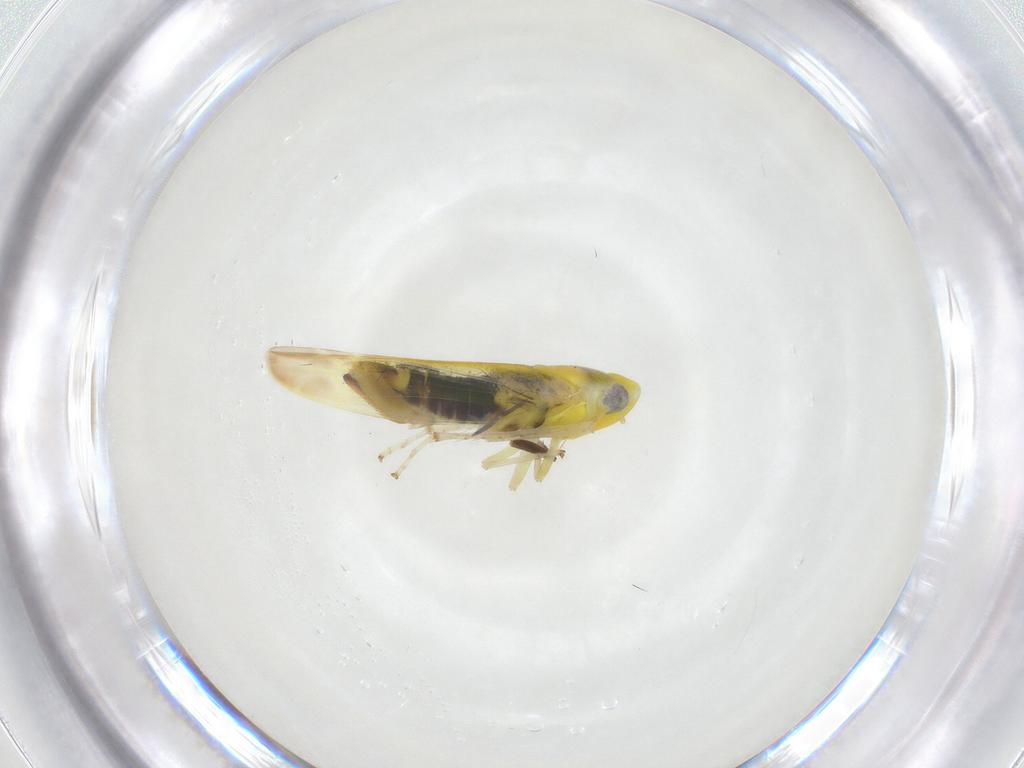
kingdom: Animalia
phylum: Arthropoda
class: Insecta
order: Hemiptera
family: Cicadellidae
